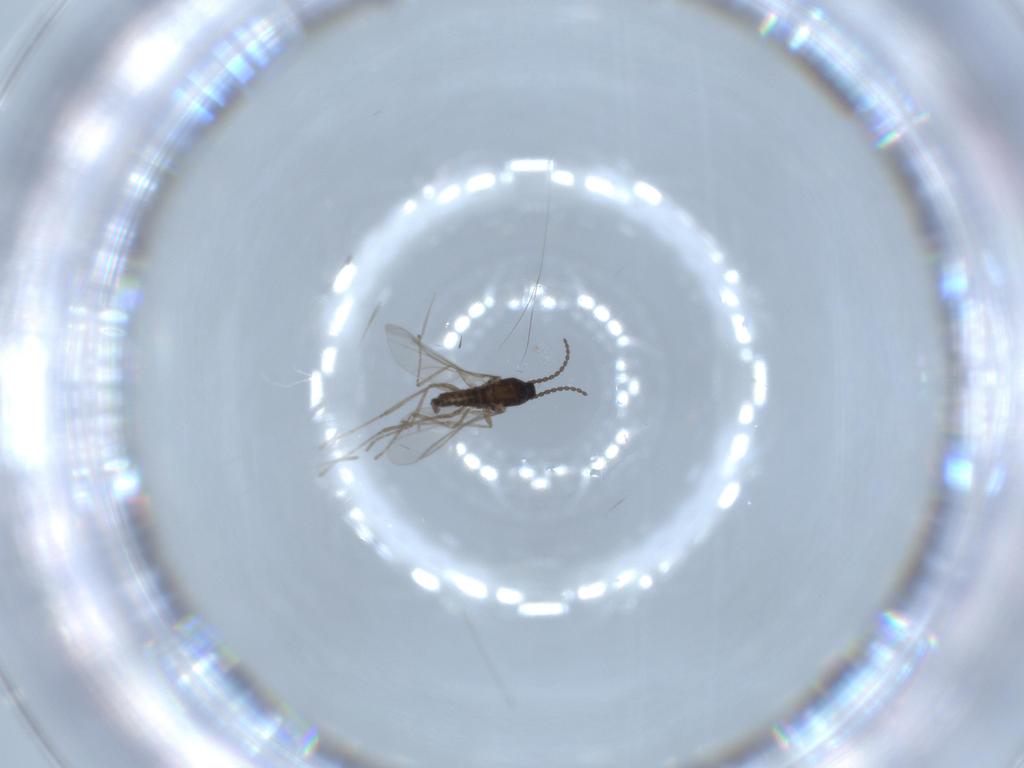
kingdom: Animalia
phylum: Arthropoda
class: Insecta
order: Diptera
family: Cecidomyiidae
